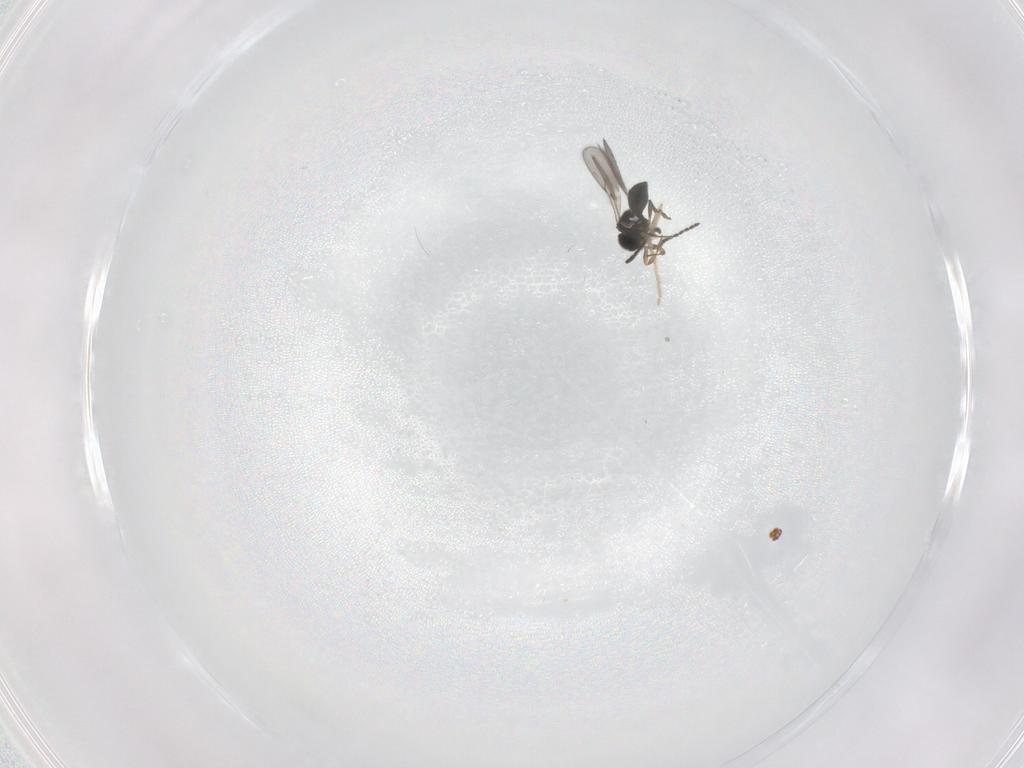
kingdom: Animalia
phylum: Arthropoda
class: Insecta
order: Hymenoptera
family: Scelionidae
